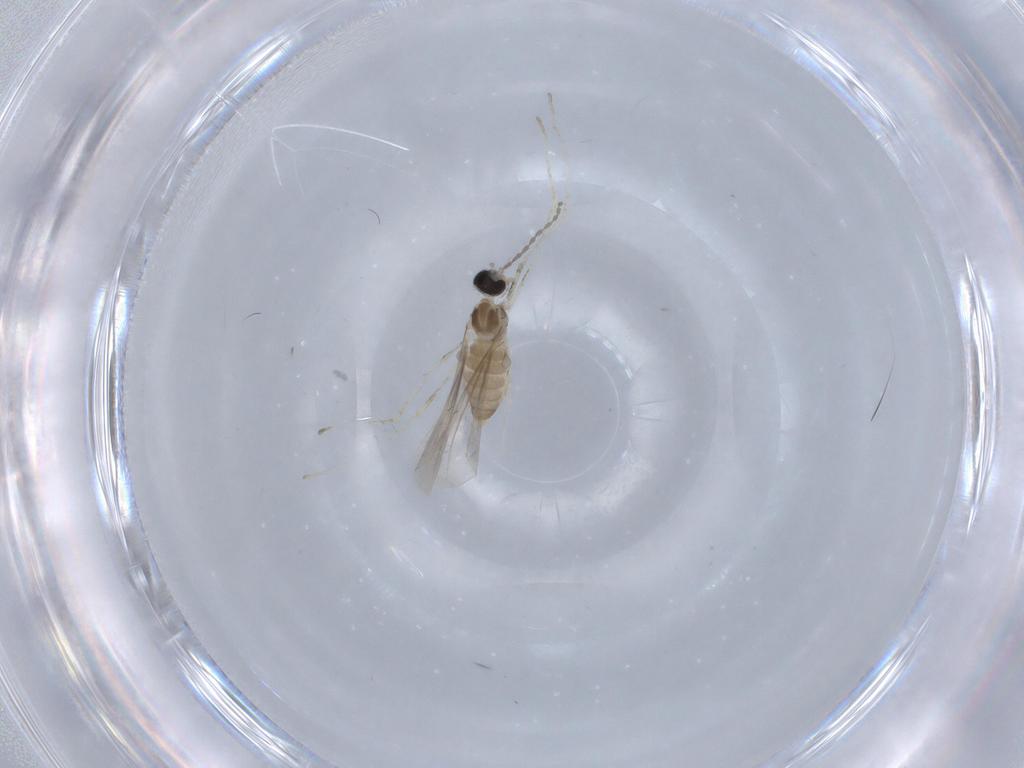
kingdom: Animalia
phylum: Arthropoda
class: Insecta
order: Diptera
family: Cecidomyiidae
